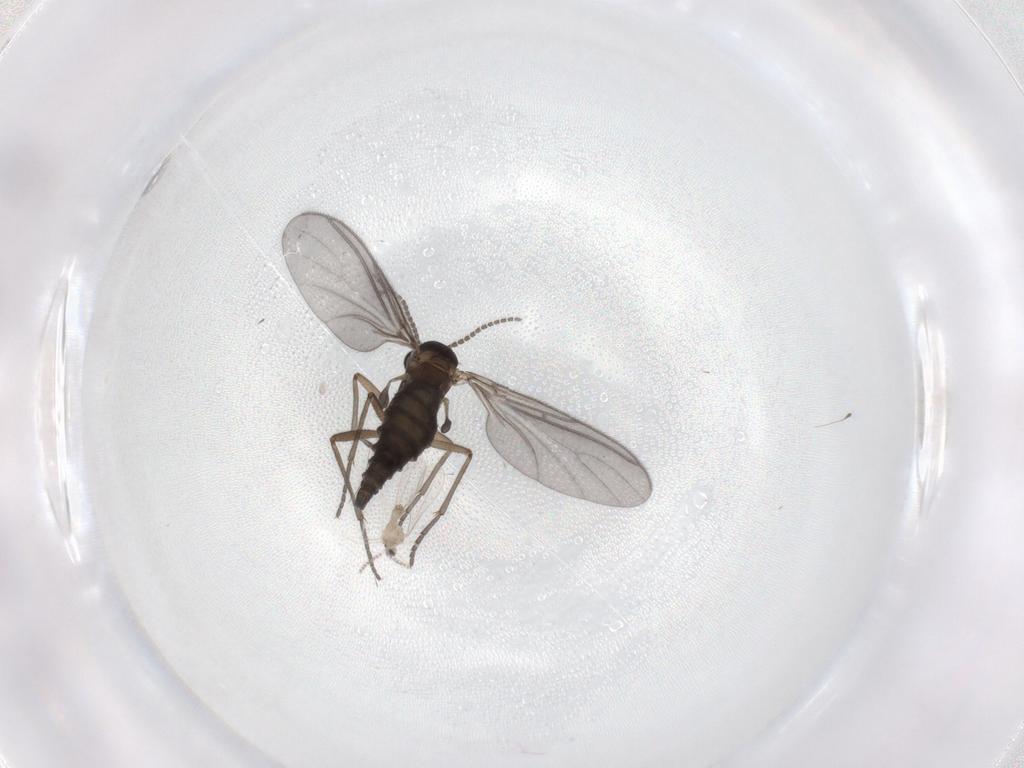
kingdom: Animalia
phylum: Arthropoda
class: Insecta
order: Diptera
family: Sciaridae
